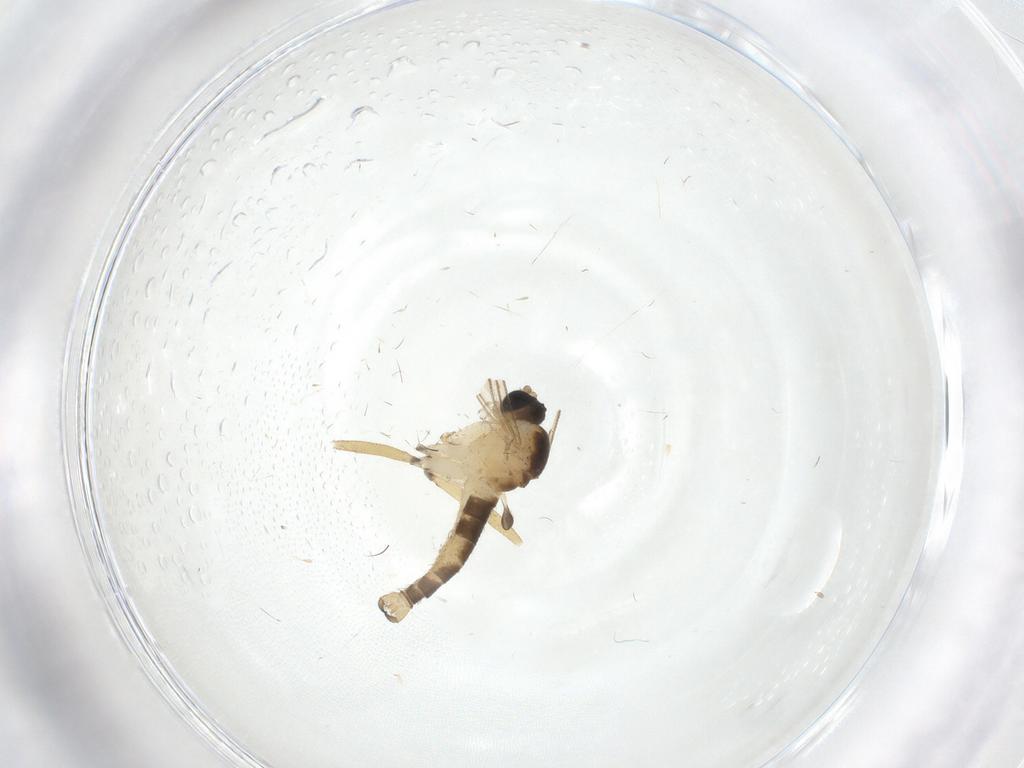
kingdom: Animalia
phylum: Arthropoda
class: Insecta
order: Diptera
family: Sciaridae
